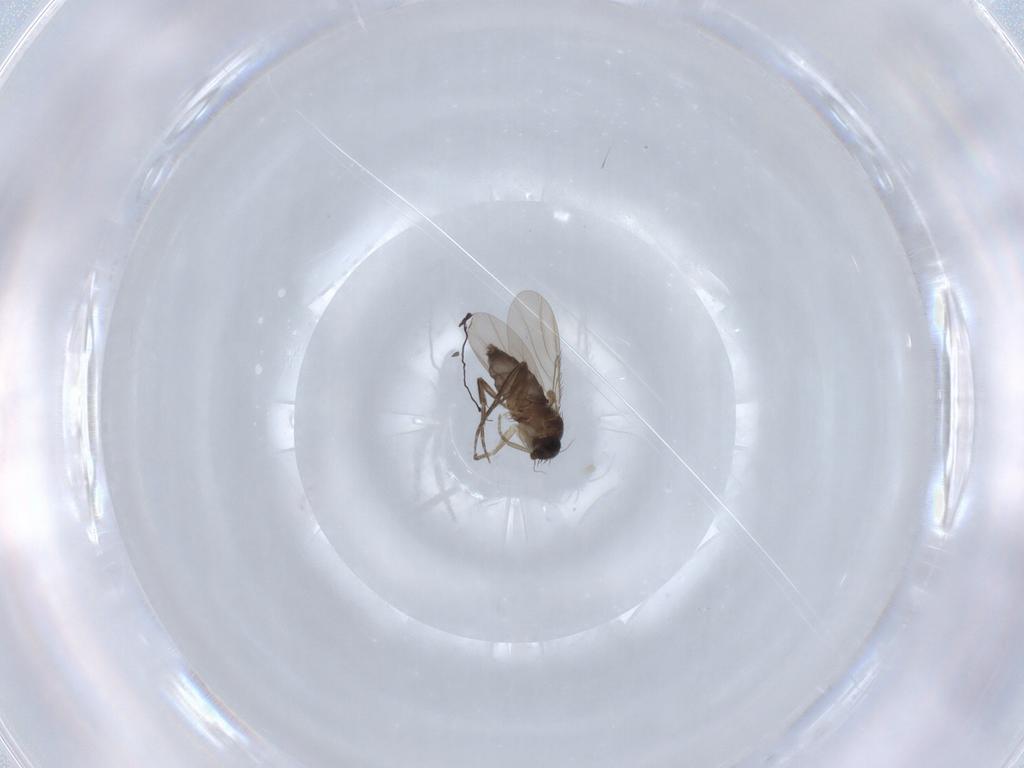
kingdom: Animalia
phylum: Arthropoda
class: Insecta
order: Diptera
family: Phoridae
